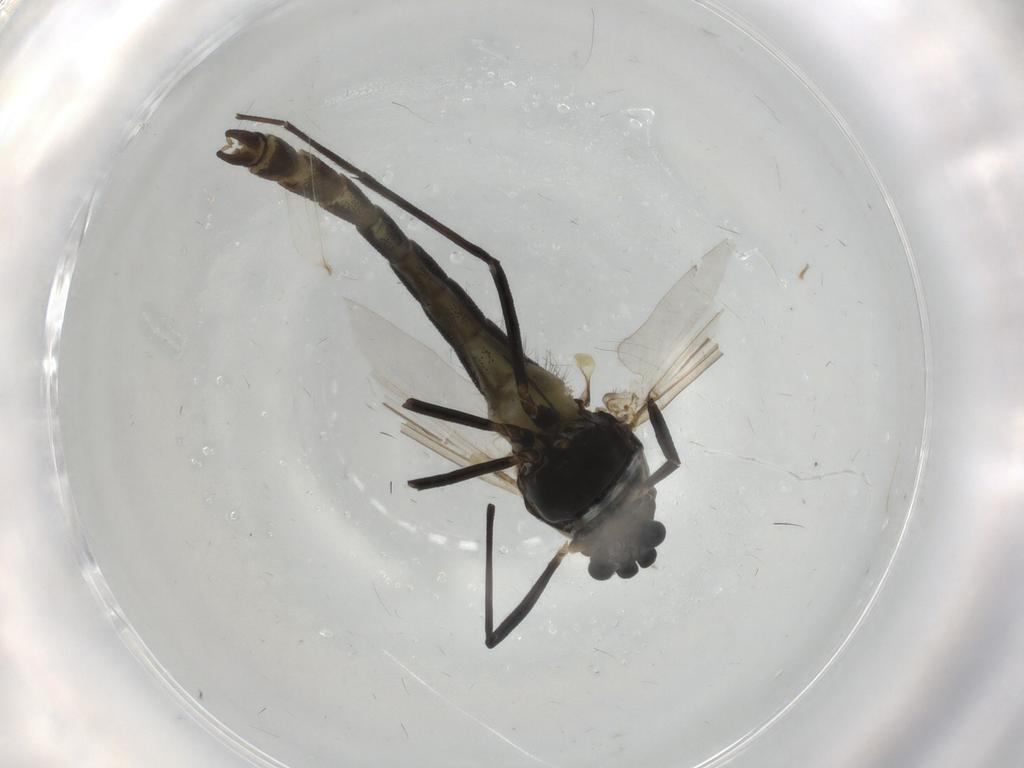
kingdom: Animalia
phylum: Arthropoda
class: Insecta
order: Diptera
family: Chironomidae
